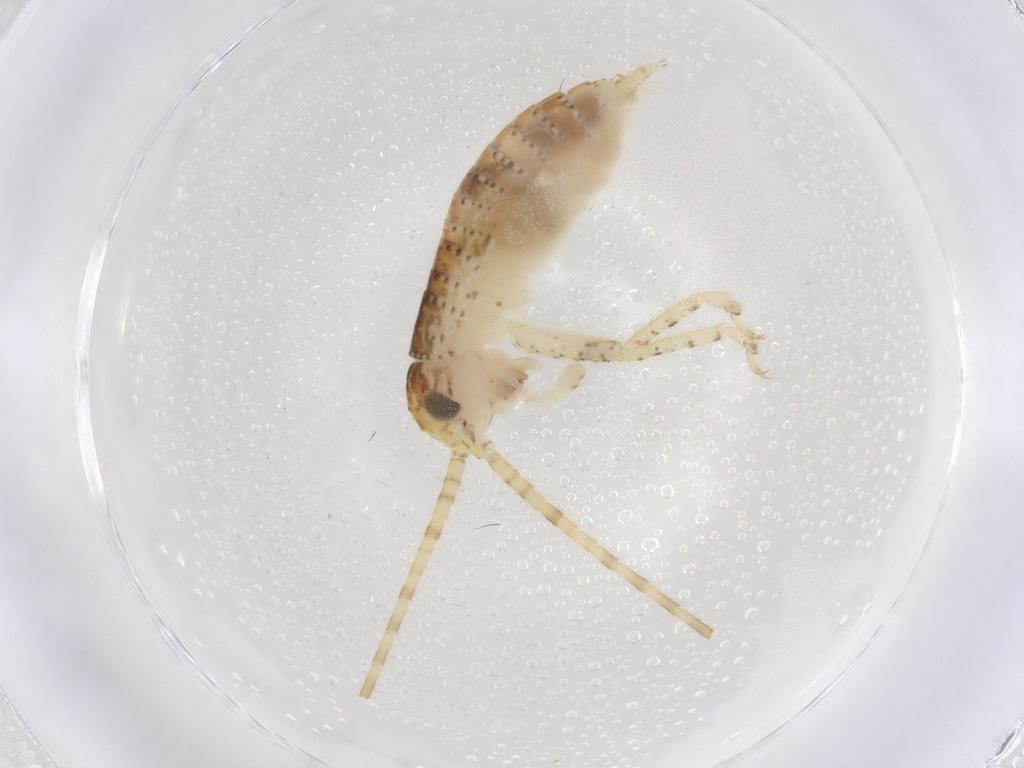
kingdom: Animalia
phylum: Arthropoda
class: Insecta
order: Orthoptera
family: Gryllidae
